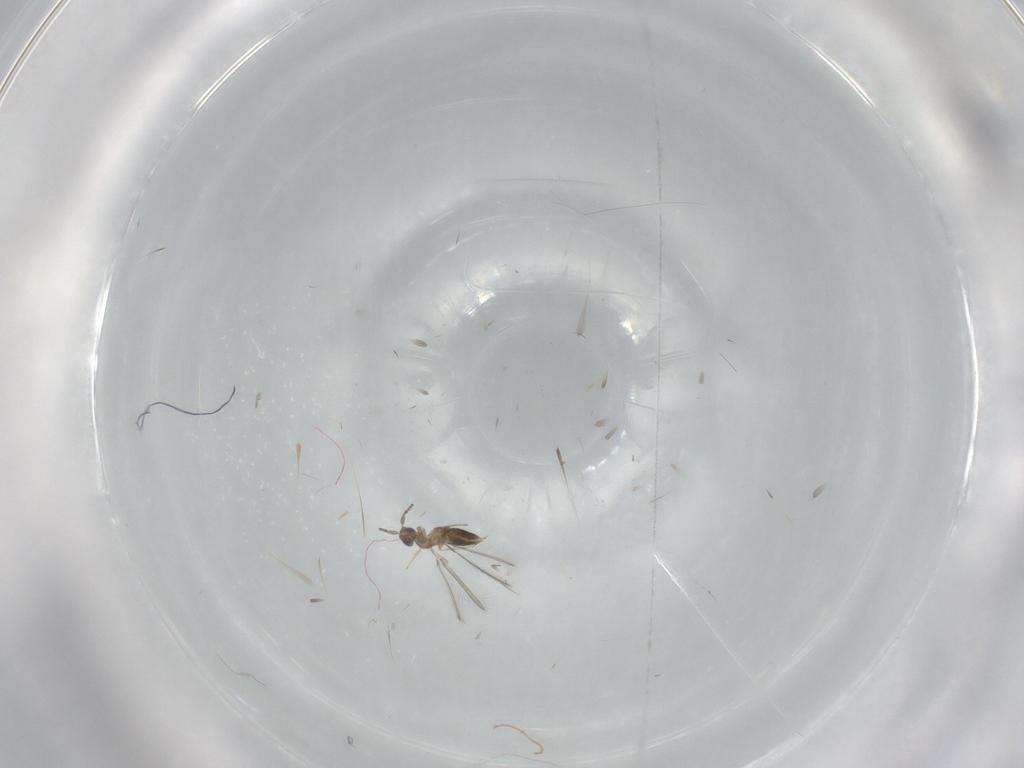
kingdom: Animalia
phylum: Arthropoda
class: Insecta
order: Hymenoptera
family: Mymaridae
